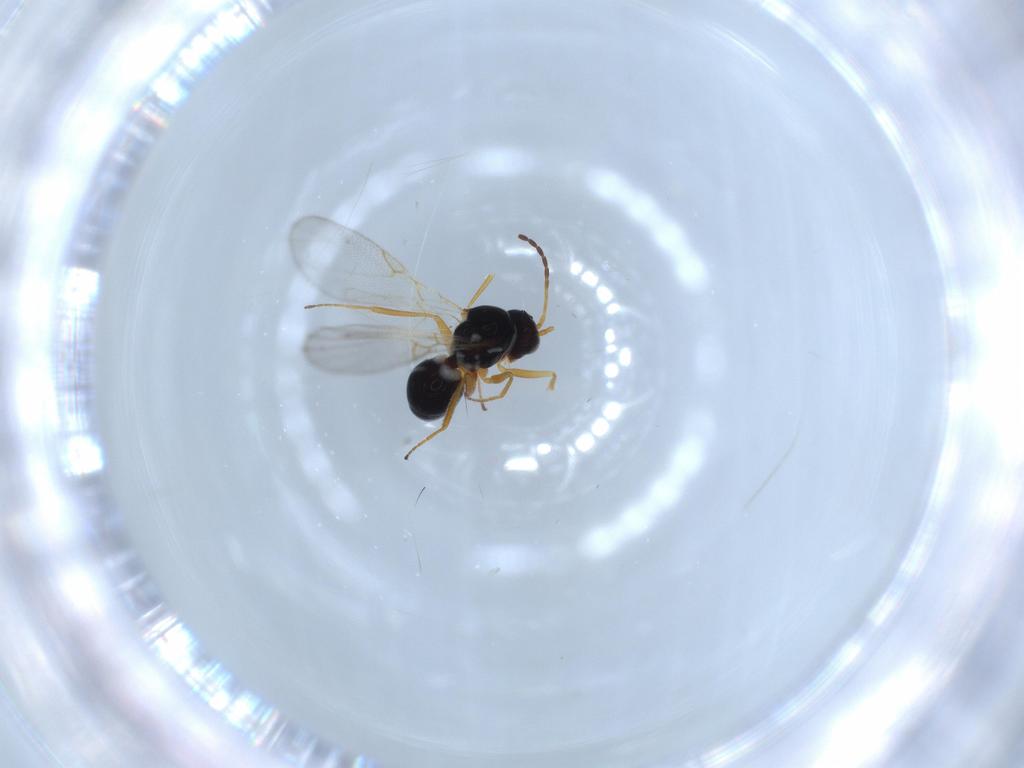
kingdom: Animalia
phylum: Arthropoda
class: Insecta
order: Hymenoptera
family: Figitidae
